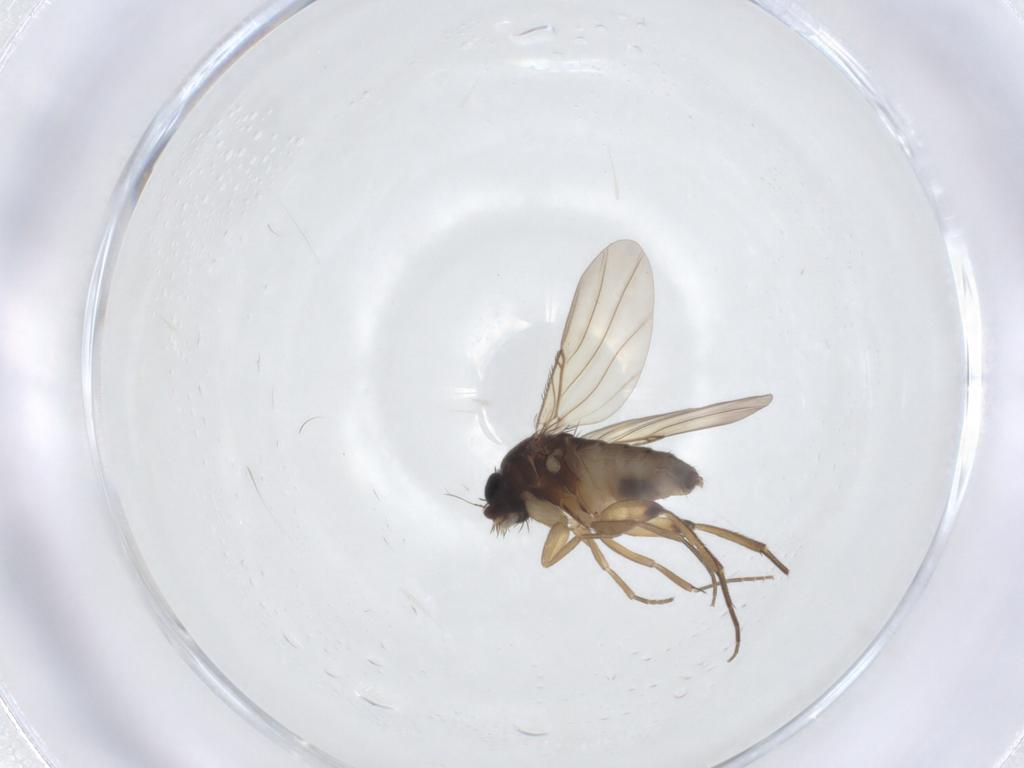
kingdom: Animalia
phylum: Arthropoda
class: Insecta
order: Diptera
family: Phoridae
